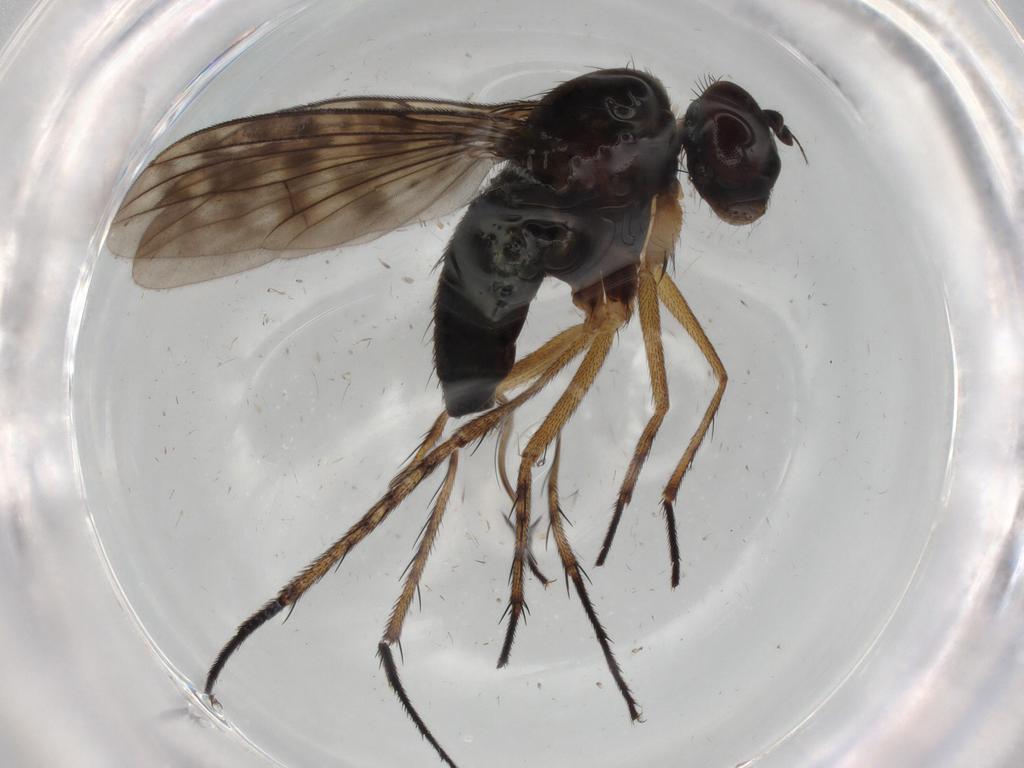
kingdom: Animalia
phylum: Arthropoda
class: Insecta
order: Diptera
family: Dolichopodidae
